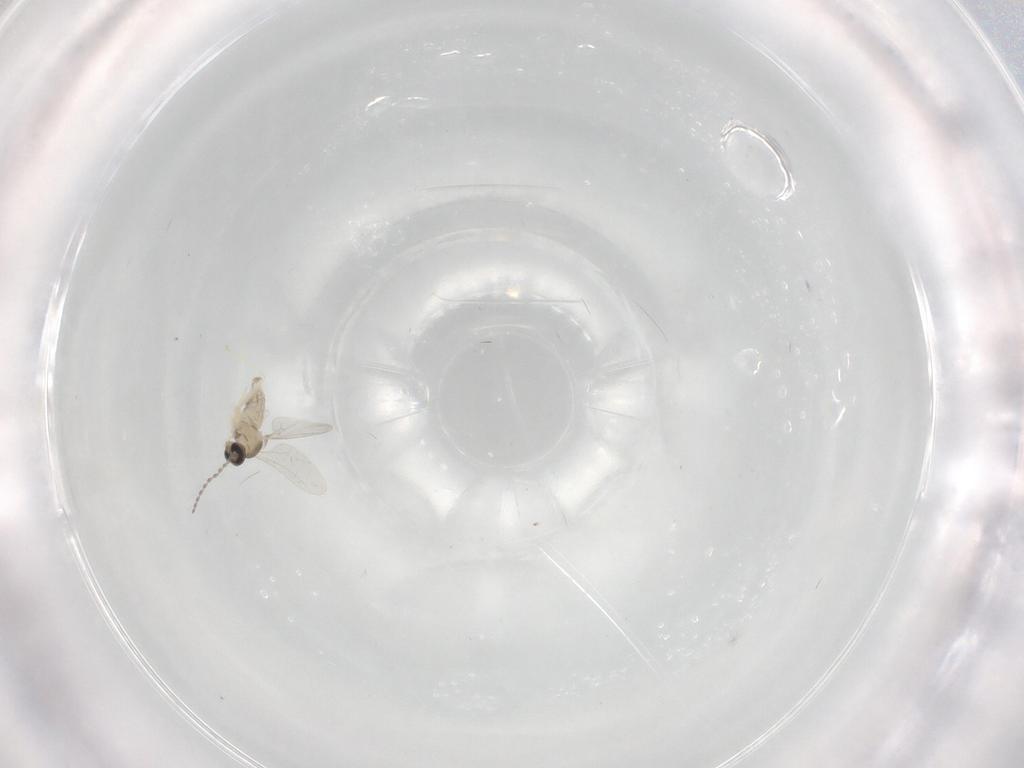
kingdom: Animalia
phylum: Arthropoda
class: Insecta
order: Diptera
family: Cecidomyiidae
